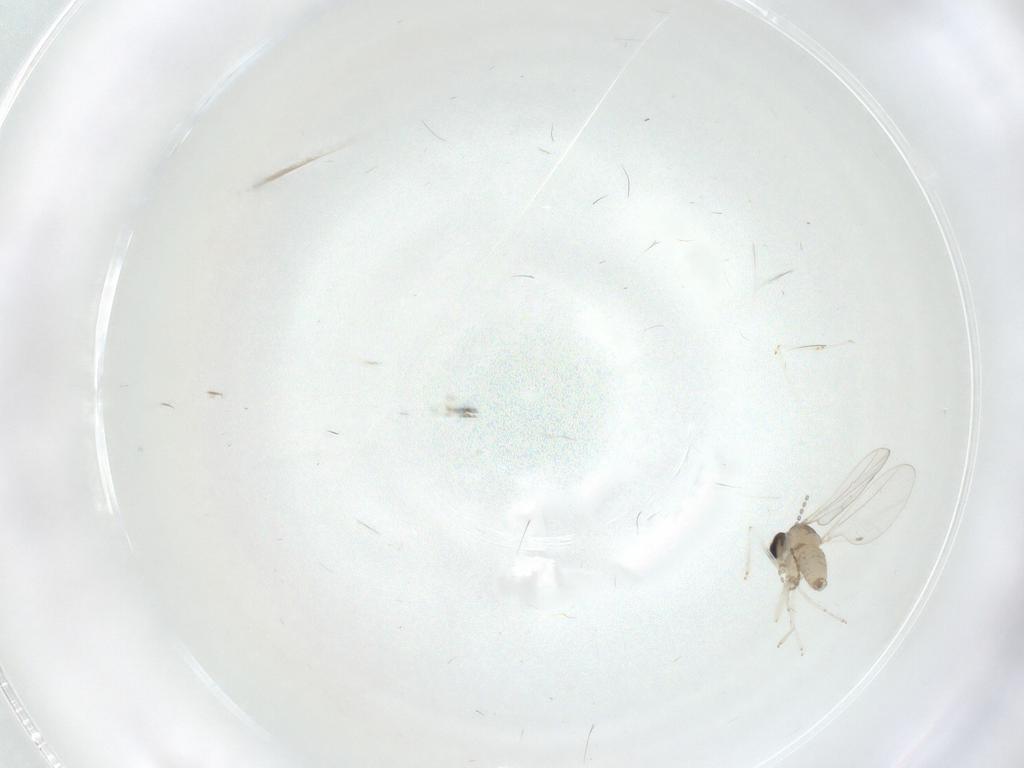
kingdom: Animalia
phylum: Arthropoda
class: Insecta
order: Diptera
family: Cecidomyiidae
